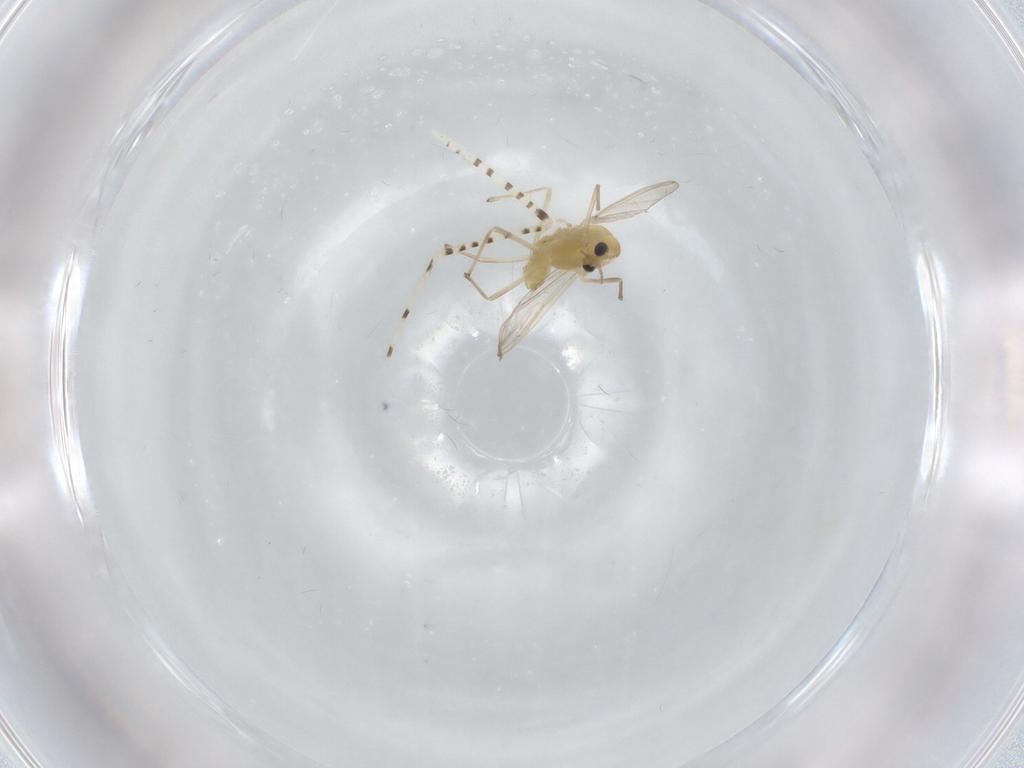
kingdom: Animalia
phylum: Arthropoda
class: Insecta
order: Diptera
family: Chironomidae
